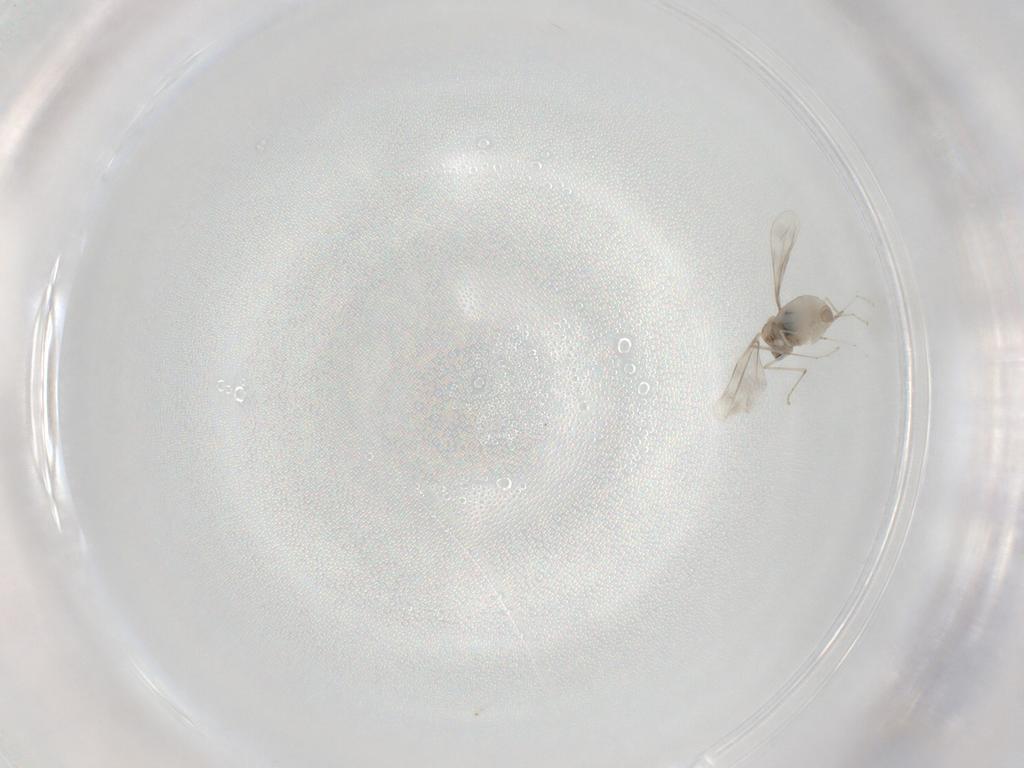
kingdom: Animalia
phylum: Arthropoda
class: Insecta
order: Diptera
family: Cecidomyiidae
